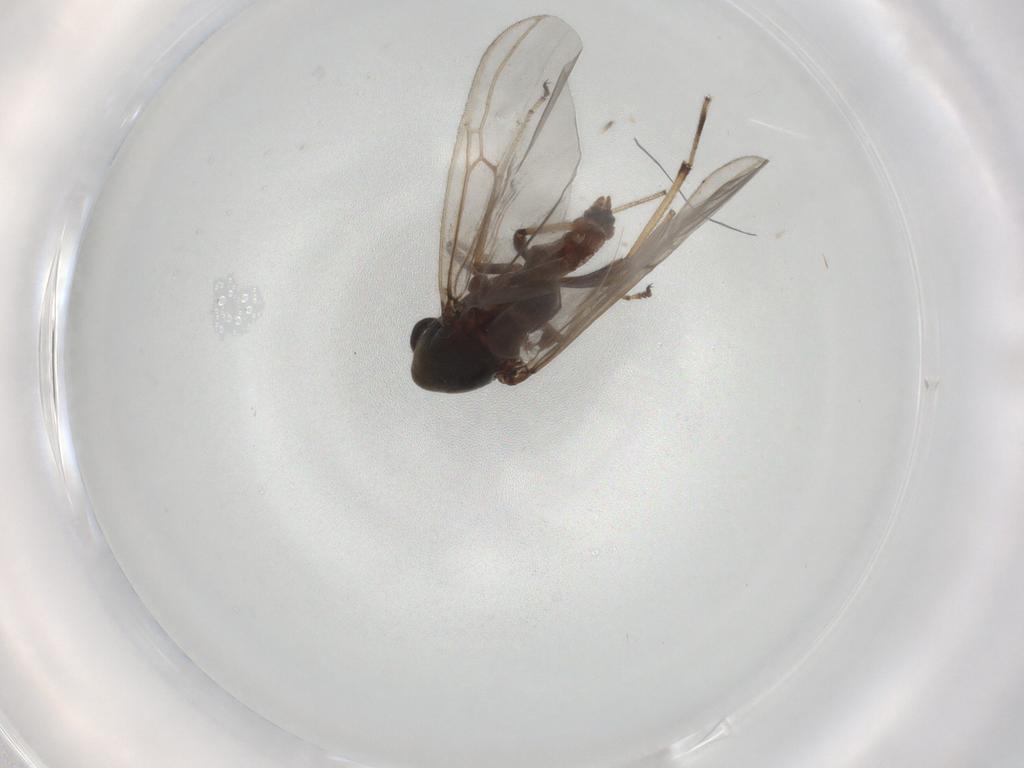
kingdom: Animalia
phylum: Arthropoda
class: Insecta
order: Diptera
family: Ceratopogonidae
